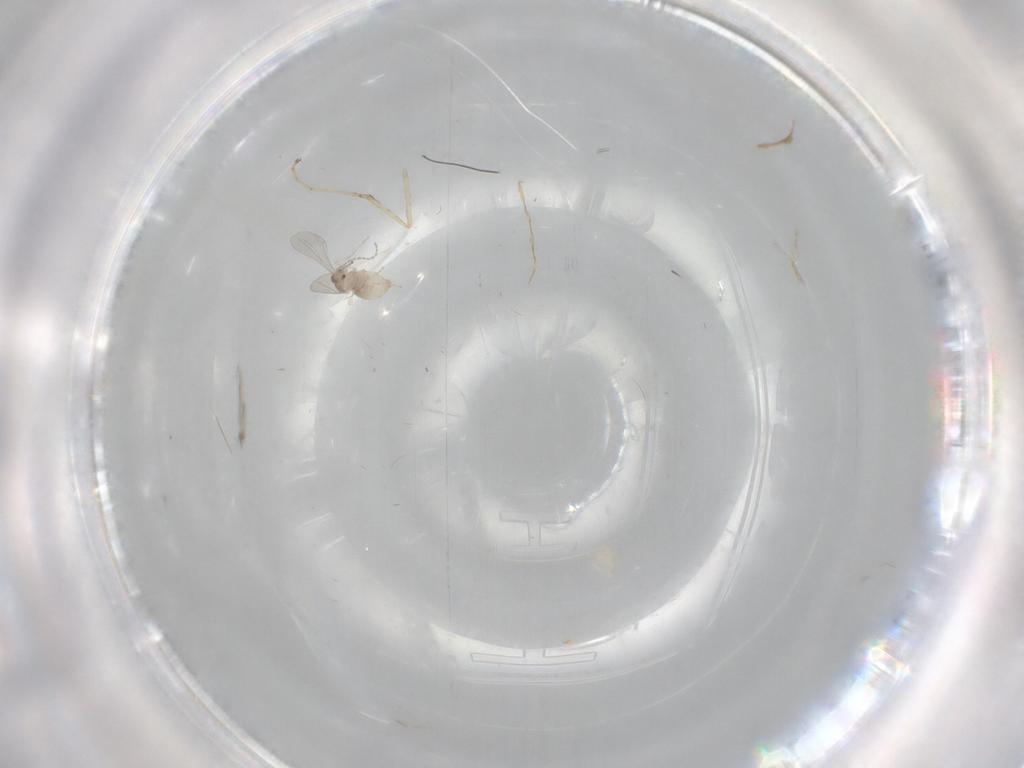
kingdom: Animalia
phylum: Arthropoda
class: Insecta
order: Diptera
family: Cecidomyiidae
